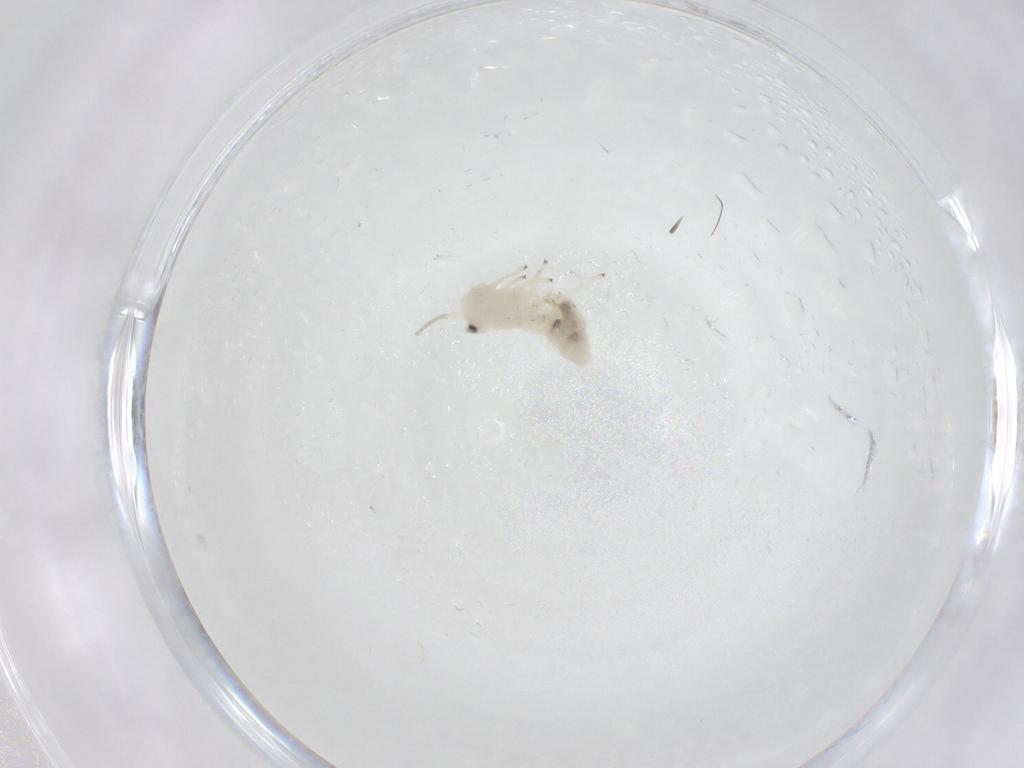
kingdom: Animalia
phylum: Arthropoda
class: Insecta
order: Psocodea
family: Caeciliusidae
